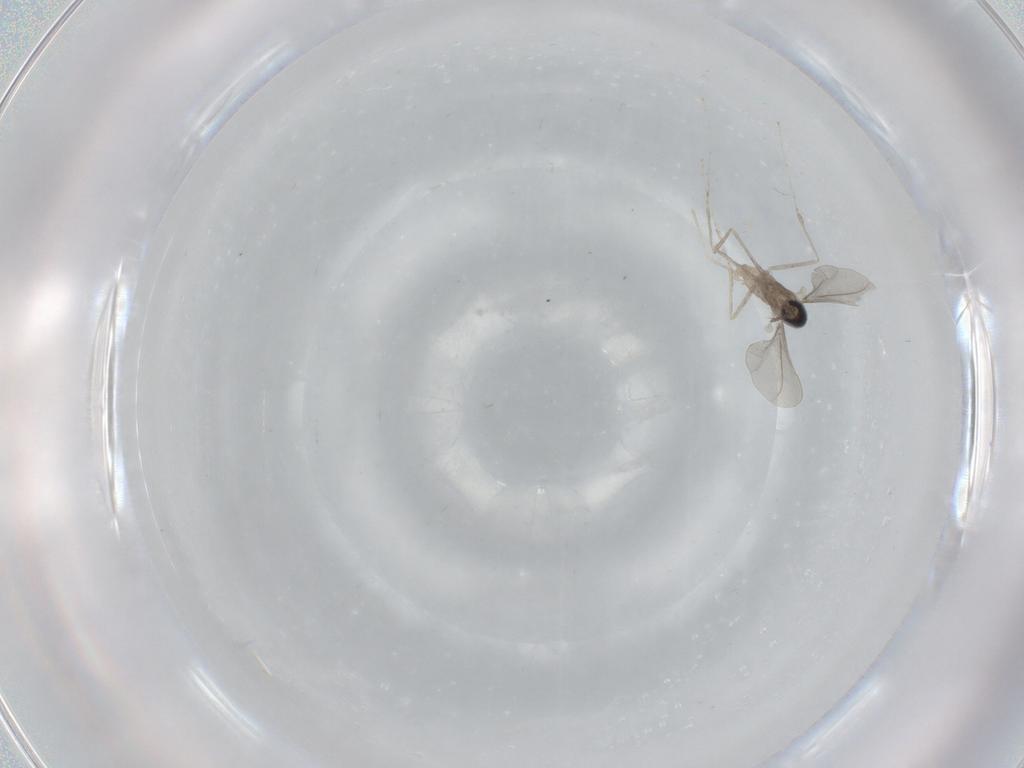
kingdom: Animalia
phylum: Arthropoda
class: Insecta
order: Diptera
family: Cecidomyiidae
